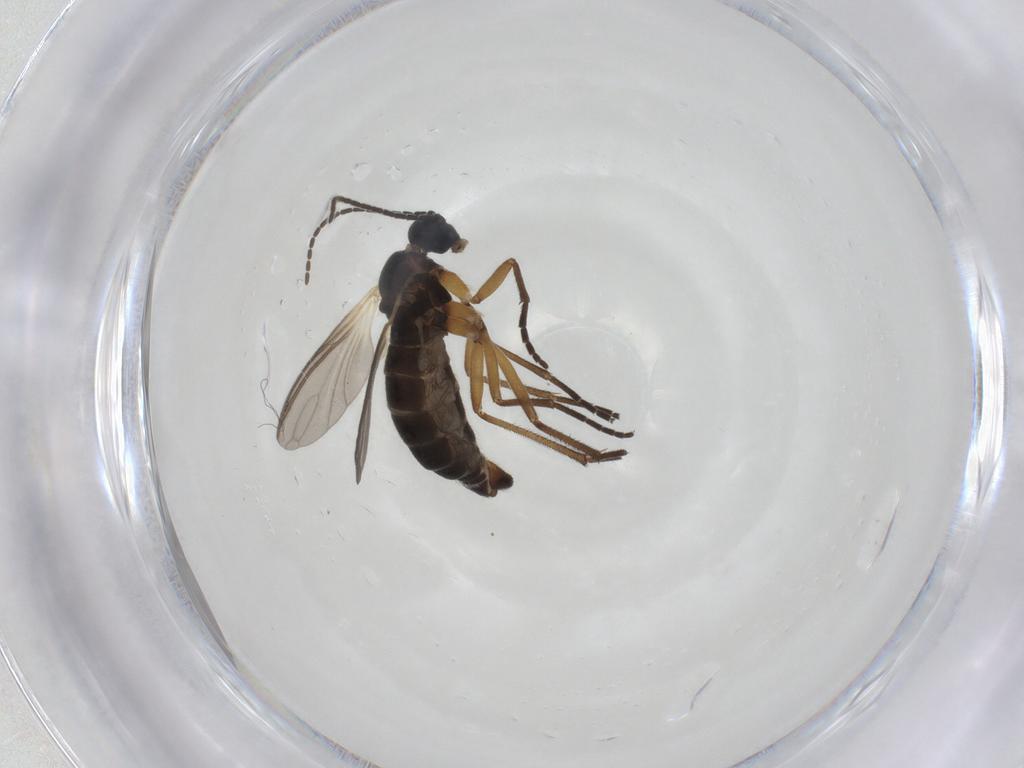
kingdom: Animalia
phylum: Arthropoda
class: Insecta
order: Diptera
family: Sciaridae
